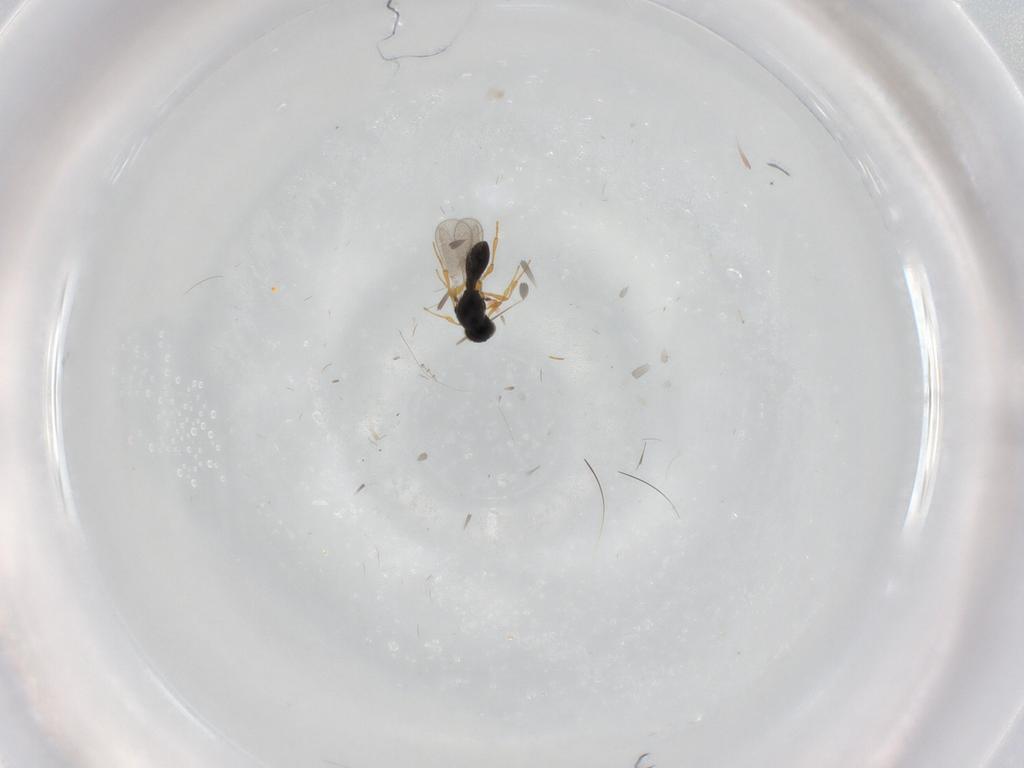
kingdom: Animalia
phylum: Arthropoda
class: Insecta
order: Hymenoptera
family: Platygastridae
